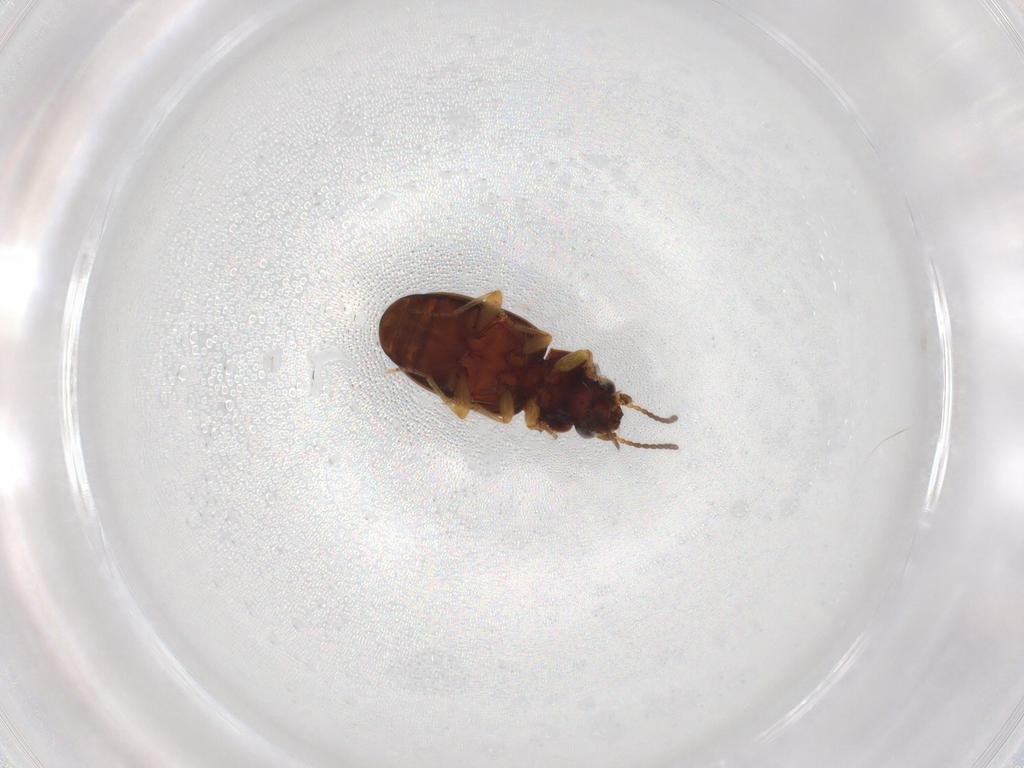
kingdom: Animalia
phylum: Arthropoda
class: Insecta
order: Coleoptera
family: Carabidae
